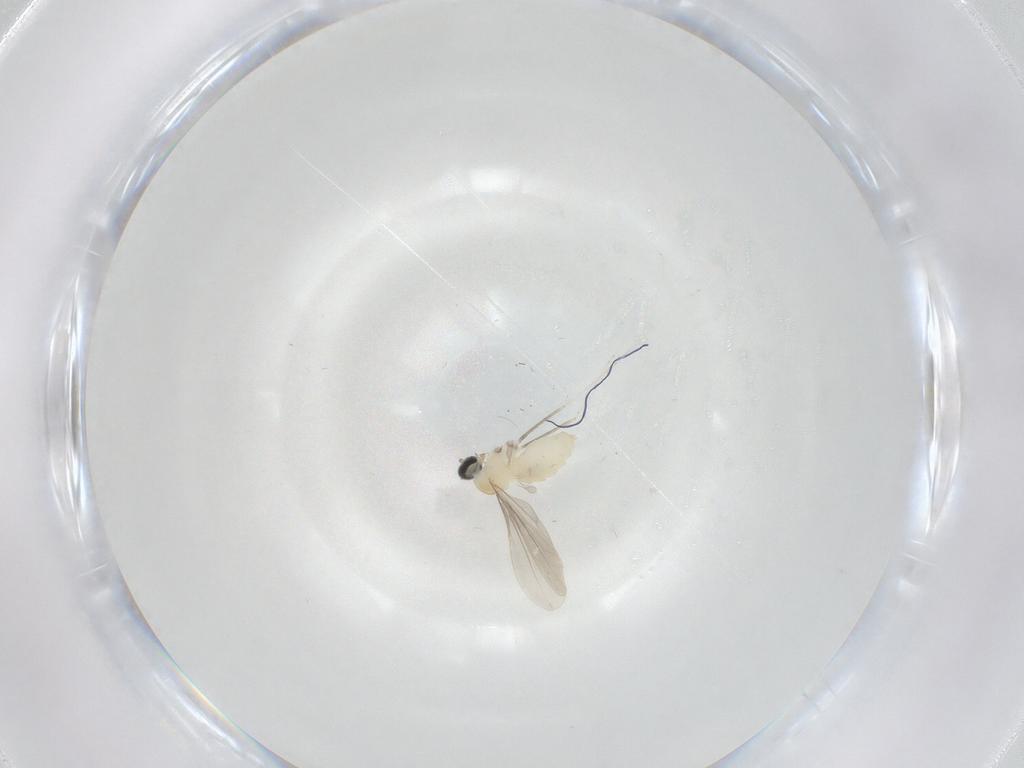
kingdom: Animalia
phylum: Arthropoda
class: Insecta
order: Diptera
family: Cecidomyiidae
